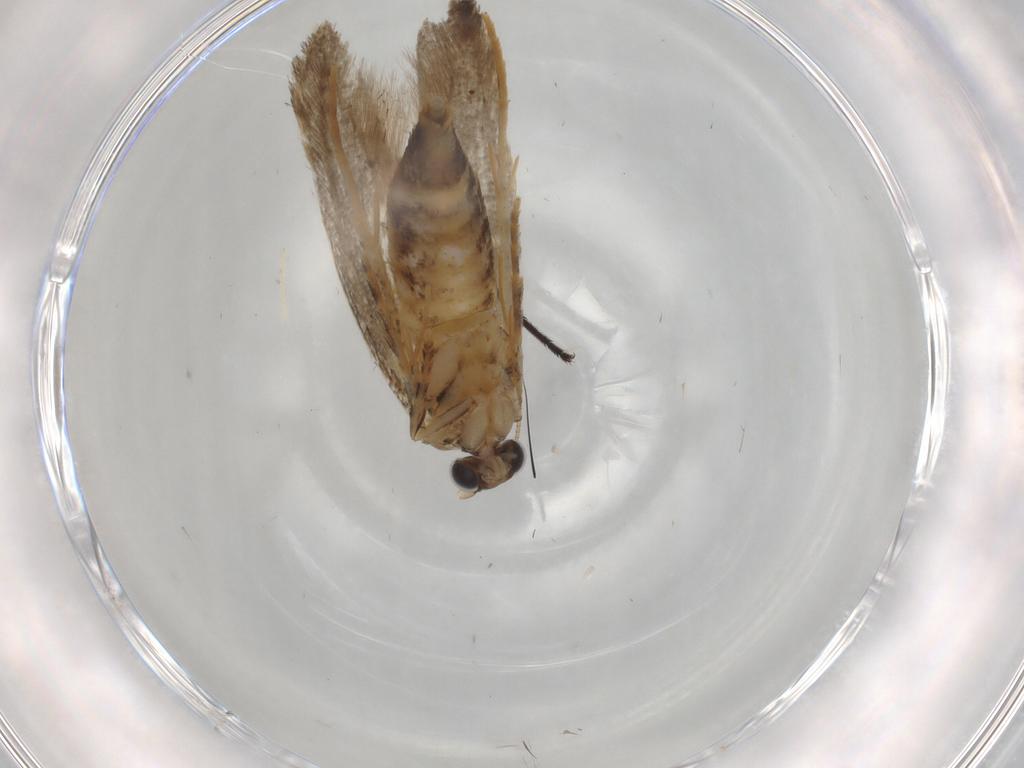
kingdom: Animalia
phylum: Arthropoda
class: Insecta
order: Lepidoptera
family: Tineidae
